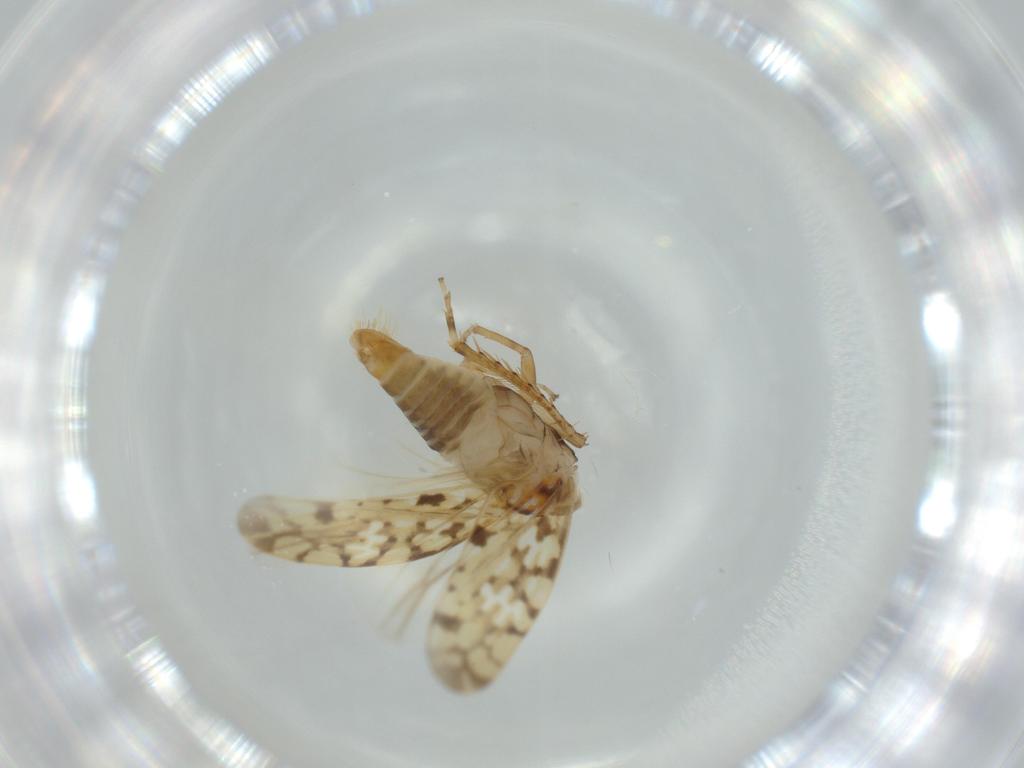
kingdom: Animalia
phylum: Arthropoda
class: Insecta
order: Hemiptera
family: Cicadellidae
